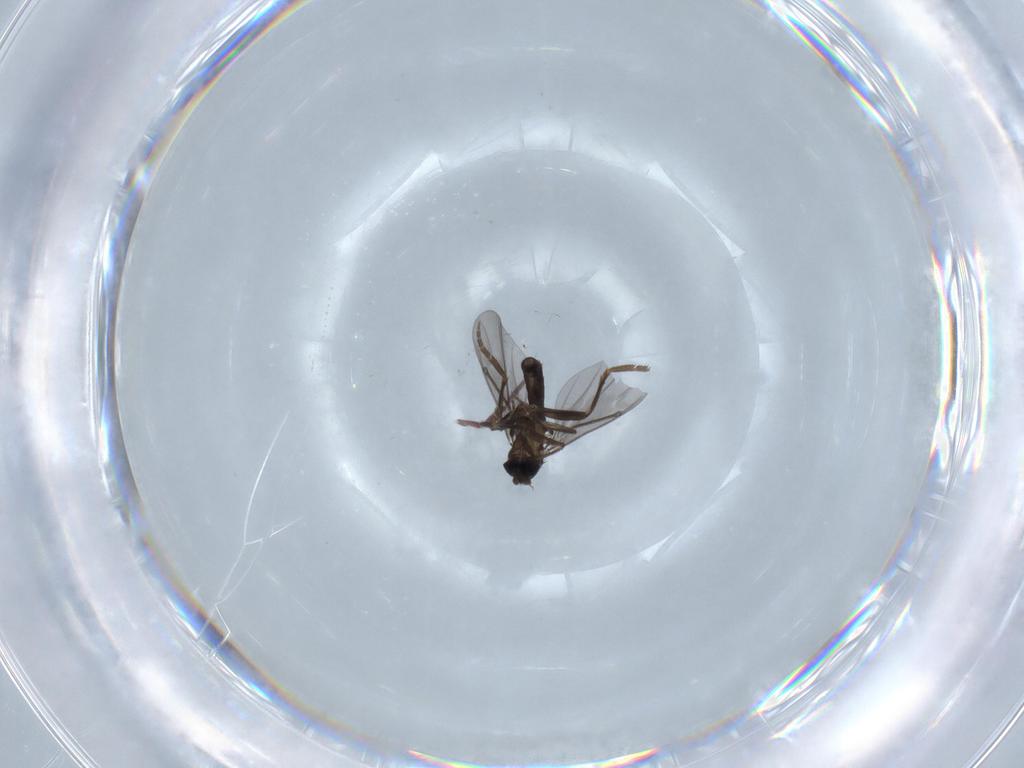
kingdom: Animalia
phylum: Arthropoda
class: Insecta
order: Diptera
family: Phoridae
